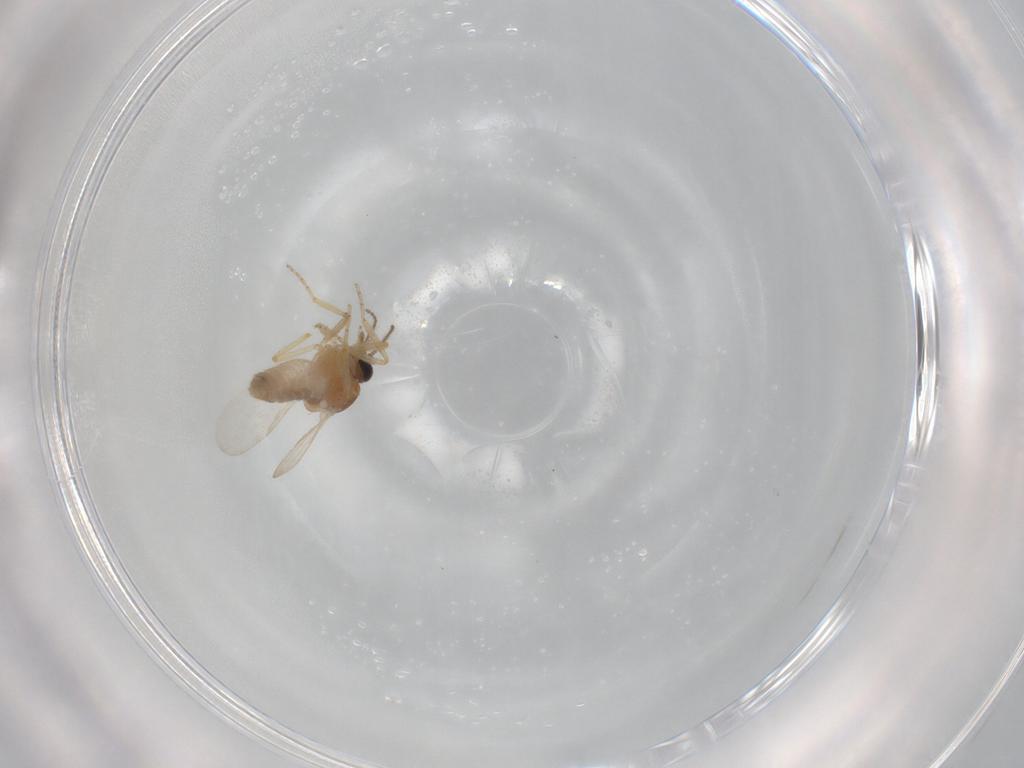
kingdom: Animalia
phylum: Arthropoda
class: Insecta
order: Diptera
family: Ceratopogonidae
